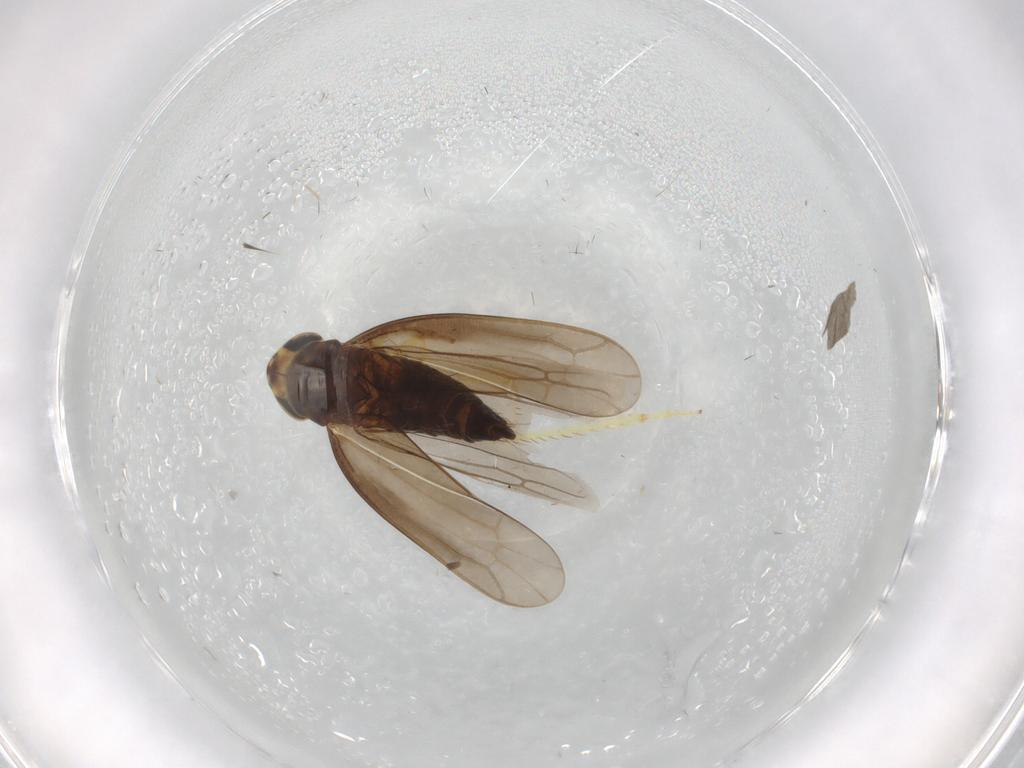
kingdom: Animalia
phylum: Arthropoda
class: Insecta
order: Hemiptera
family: Cicadellidae
